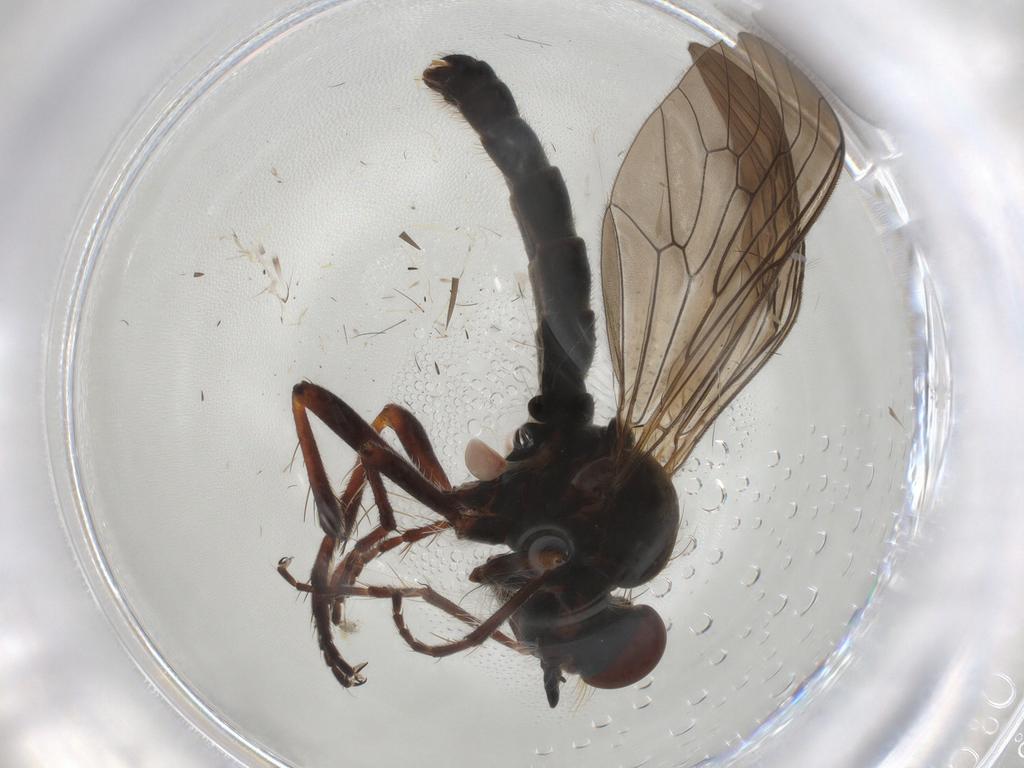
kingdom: Animalia
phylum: Arthropoda
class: Insecta
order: Diptera
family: Asilidae
